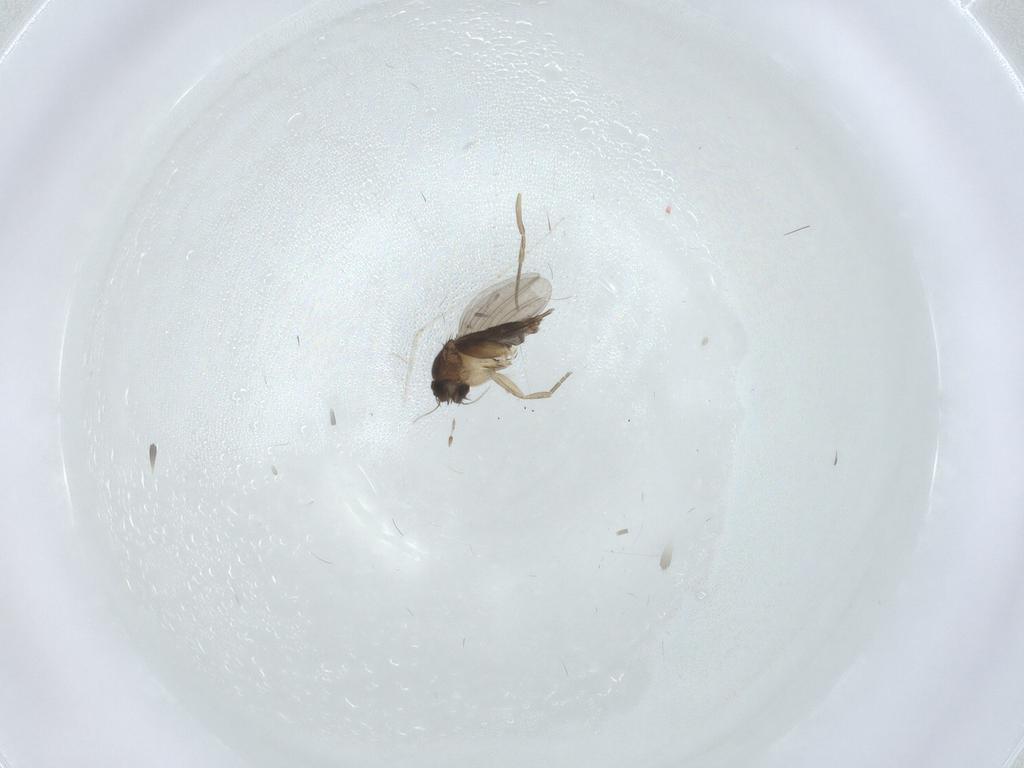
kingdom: Animalia
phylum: Arthropoda
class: Insecta
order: Diptera
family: Phoridae
